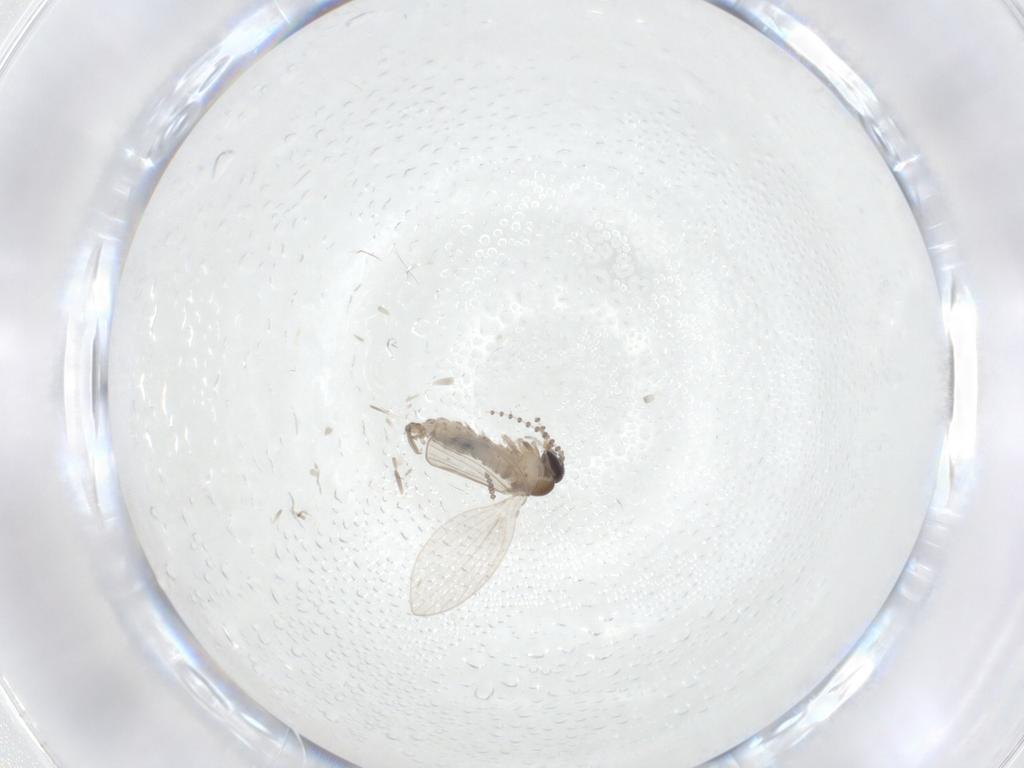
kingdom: Animalia
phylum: Arthropoda
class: Insecta
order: Diptera
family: Psychodidae
